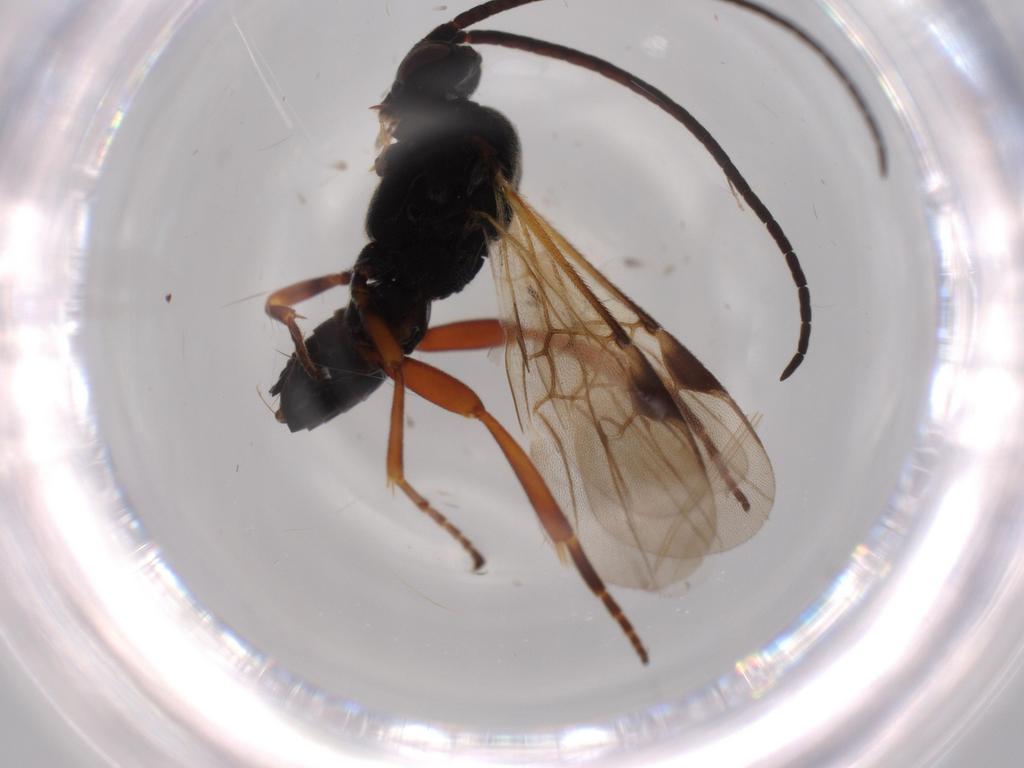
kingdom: Animalia
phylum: Arthropoda
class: Insecta
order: Hymenoptera
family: Braconidae
